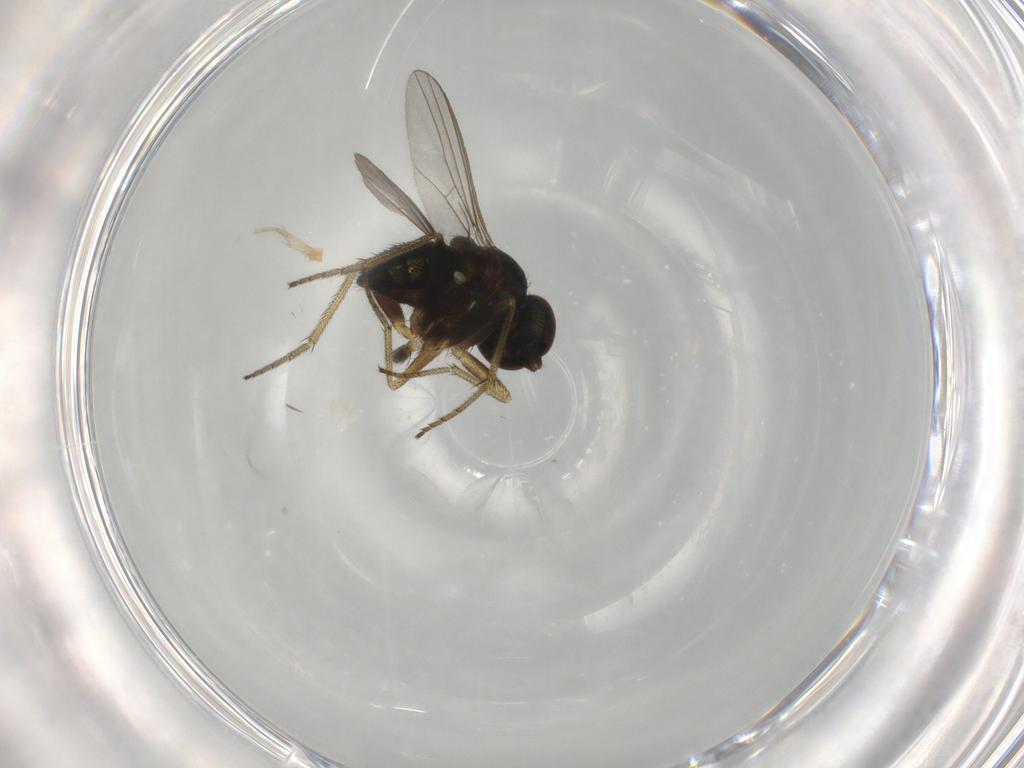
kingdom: Animalia
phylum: Arthropoda
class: Insecta
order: Diptera
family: Dolichopodidae
